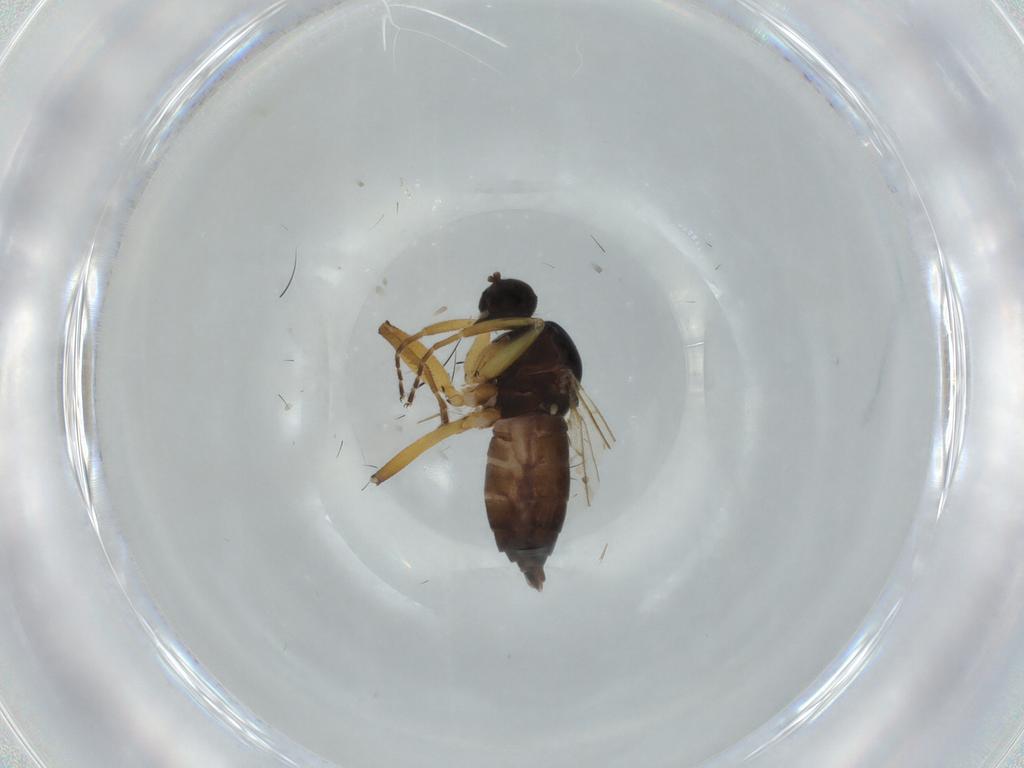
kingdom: Animalia
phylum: Arthropoda
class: Insecta
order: Diptera
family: Hybotidae
